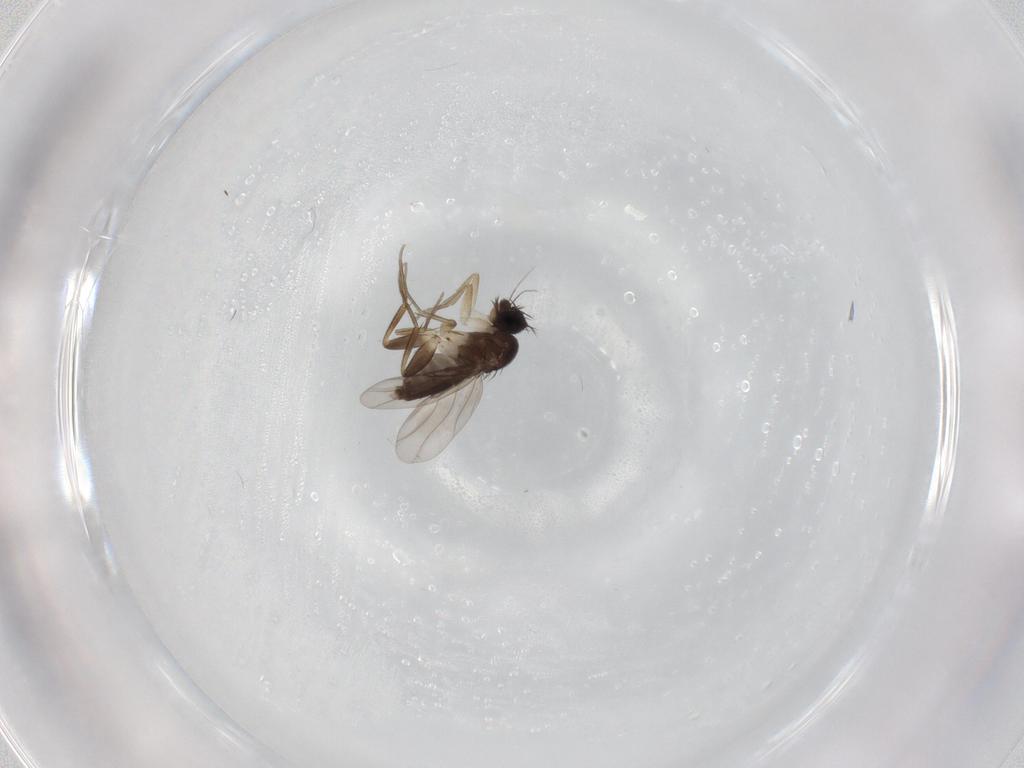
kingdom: Animalia
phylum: Arthropoda
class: Insecta
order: Diptera
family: Phoridae
